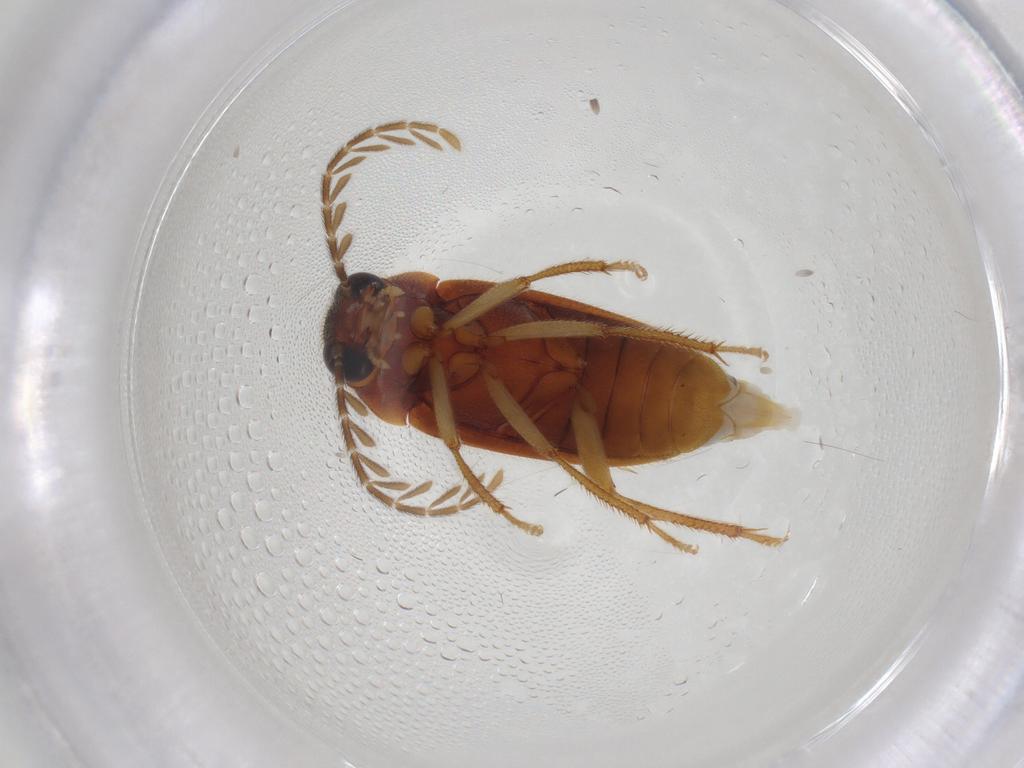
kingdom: Animalia
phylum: Arthropoda
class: Insecta
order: Coleoptera
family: Ptilodactylidae
